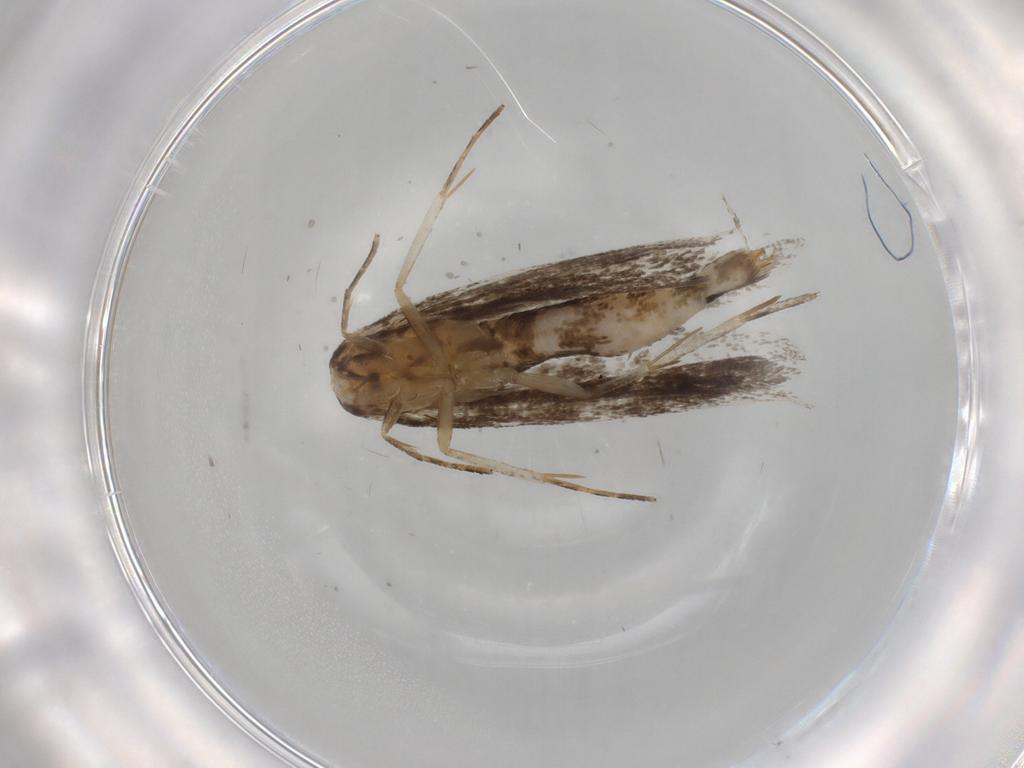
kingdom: Animalia
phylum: Arthropoda
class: Insecta
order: Lepidoptera
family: Gelechiidae
